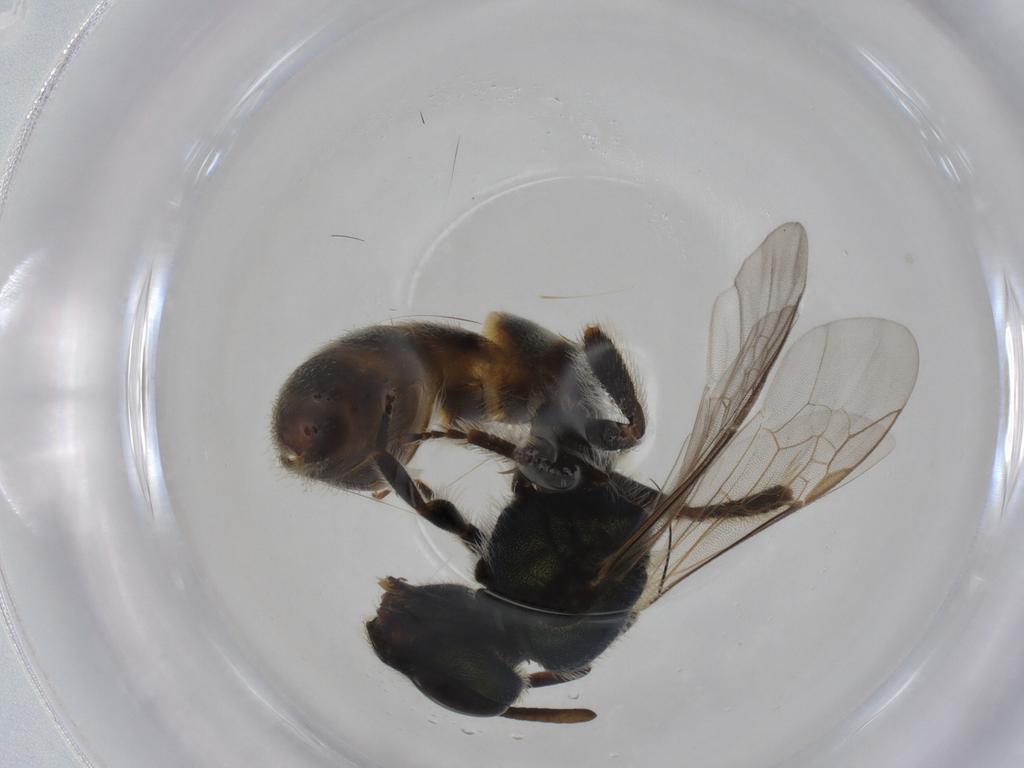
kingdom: Animalia
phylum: Arthropoda
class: Insecta
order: Hymenoptera
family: Halictidae
